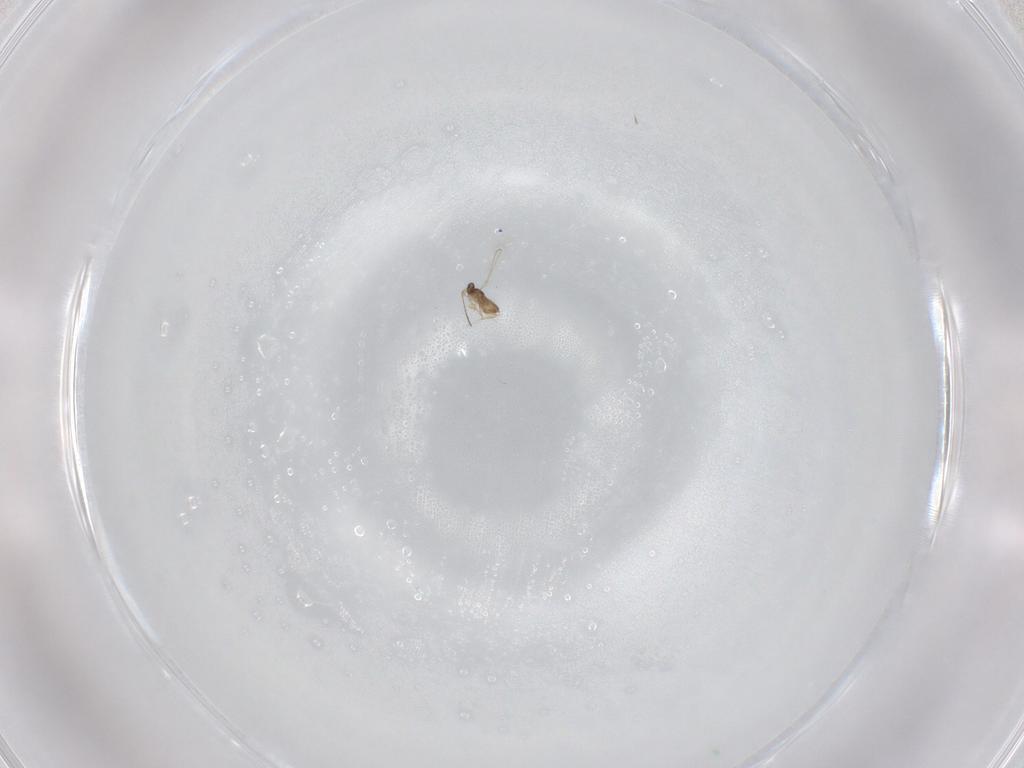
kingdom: Animalia
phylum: Arthropoda
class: Insecta
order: Hymenoptera
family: Mymaridae
